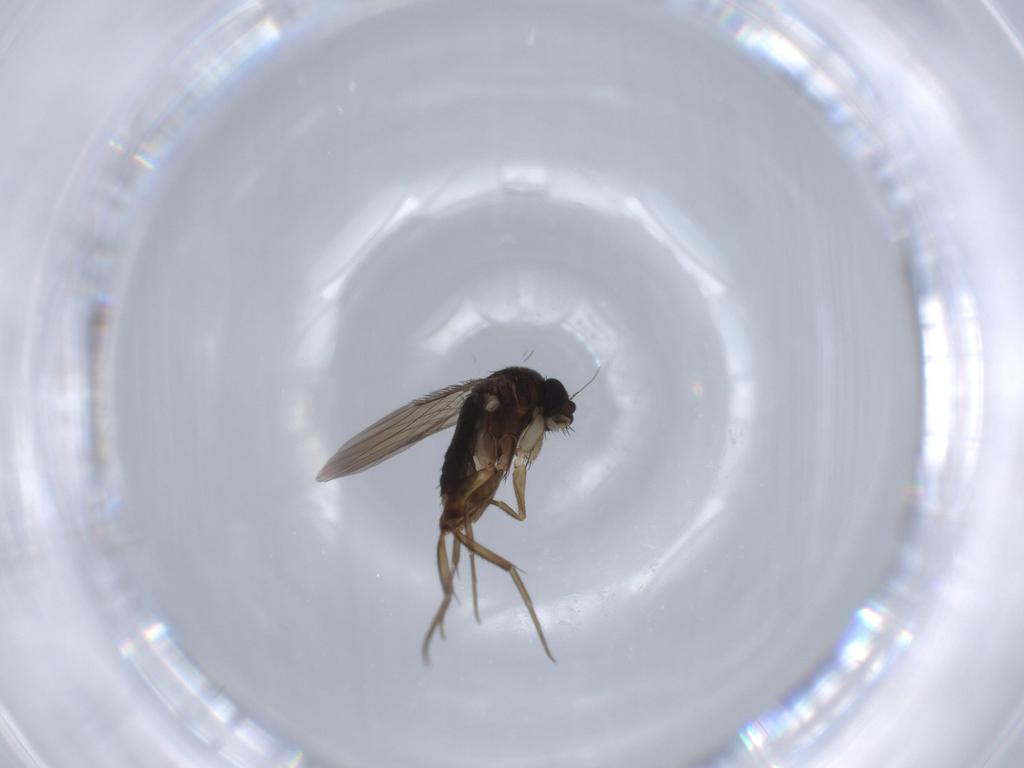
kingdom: Animalia
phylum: Arthropoda
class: Insecta
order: Diptera
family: Phoridae
